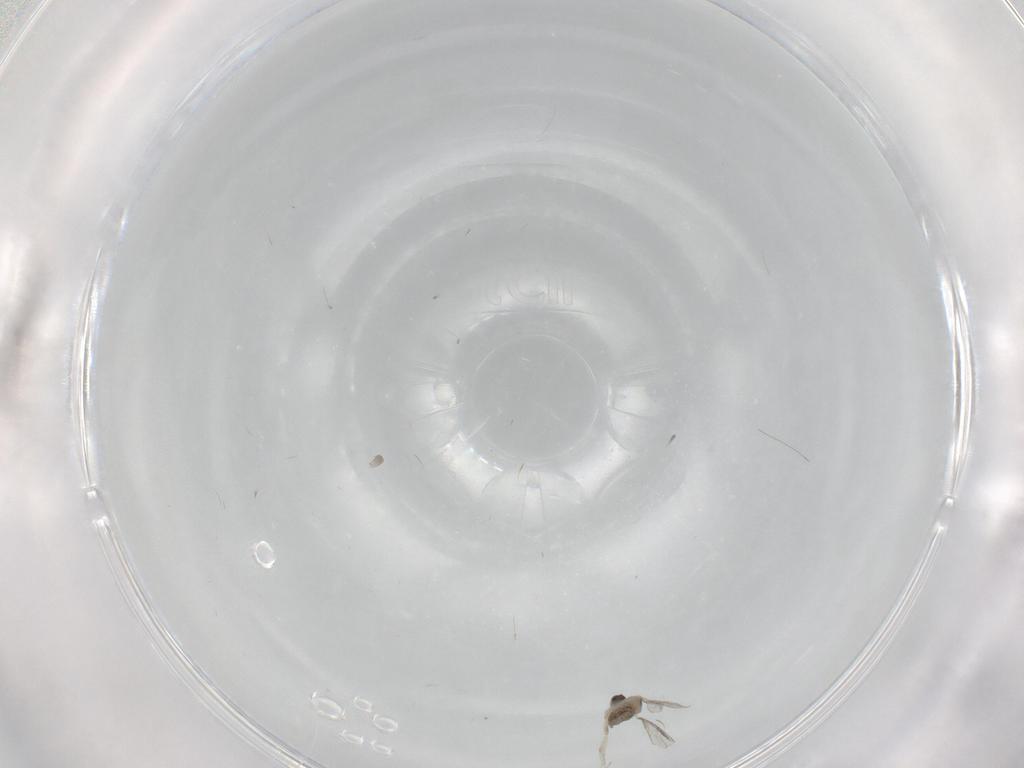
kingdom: Animalia
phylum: Arthropoda
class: Insecta
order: Diptera
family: Cecidomyiidae
